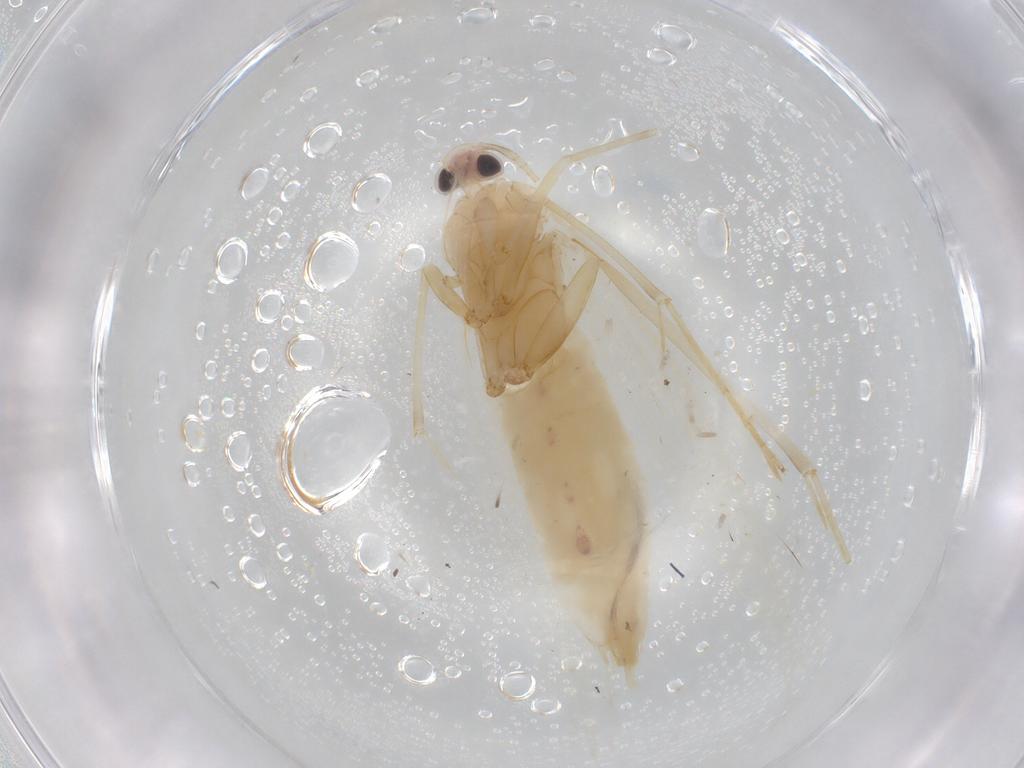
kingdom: Animalia
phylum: Arthropoda
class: Insecta
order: Lepidoptera
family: Xyloryctidae
